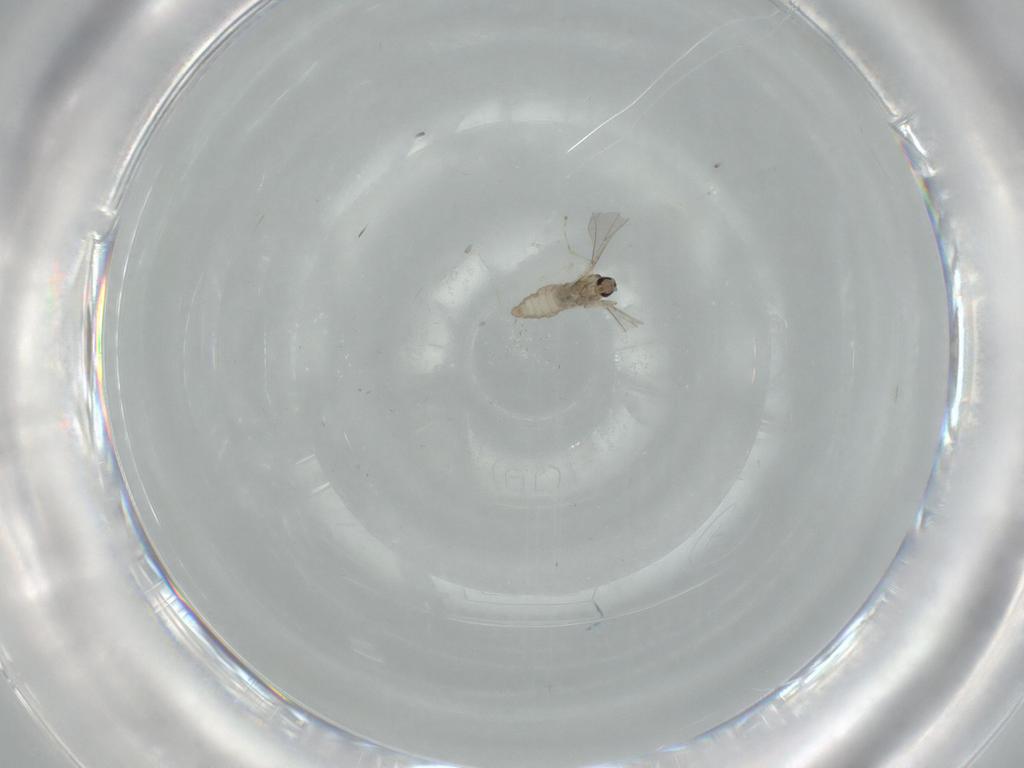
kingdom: Animalia
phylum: Arthropoda
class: Insecta
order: Diptera
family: Cecidomyiidae
